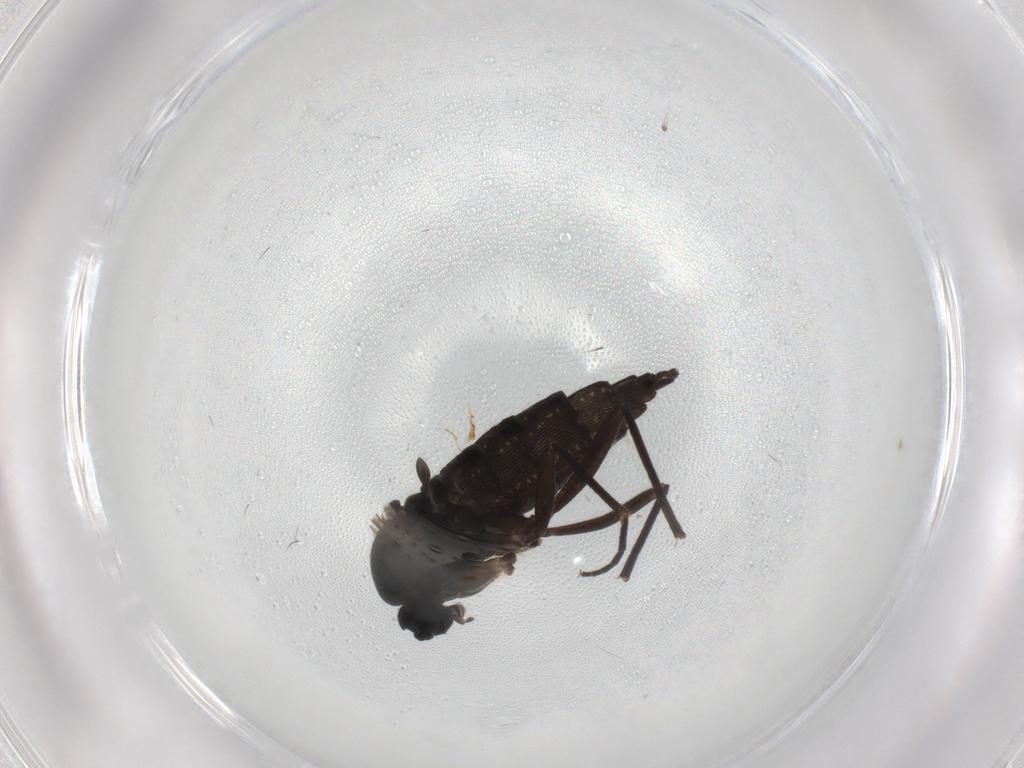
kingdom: Animalia
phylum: Arthropoda
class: Insecta
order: Diptera
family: Sciaridae
